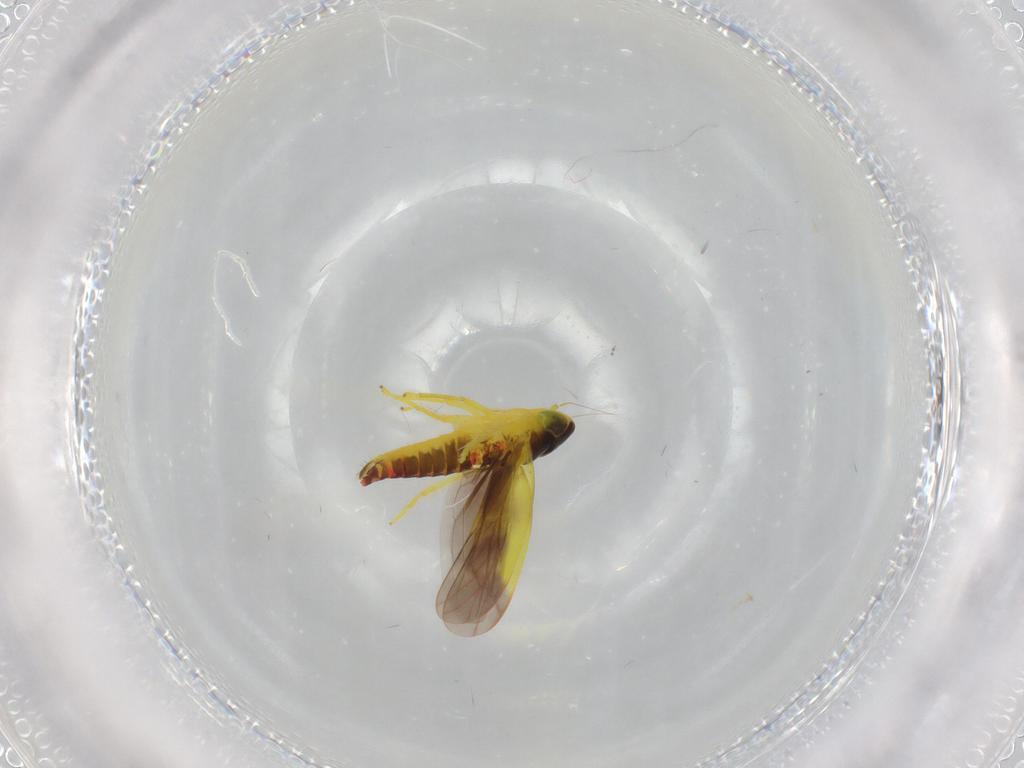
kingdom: Animalia
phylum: Arthropoda
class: Insecta
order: Hemiptera
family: Cicadellidae
